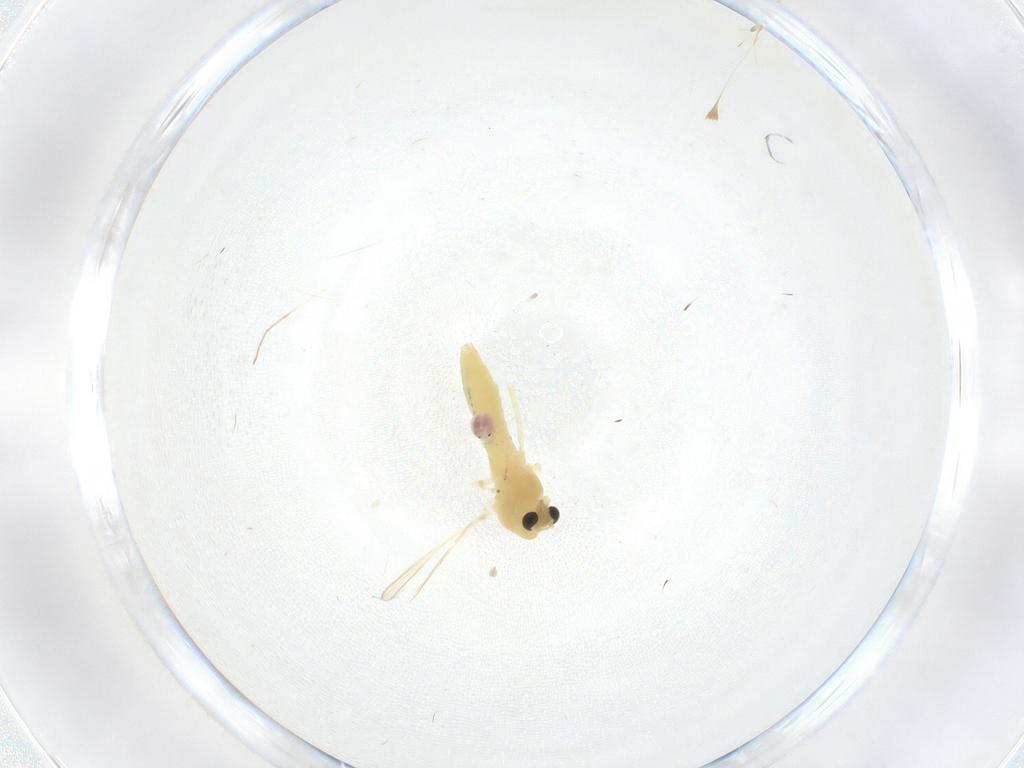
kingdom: Animalia
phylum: Arthropoda
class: Insecta
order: Diptera
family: Chironomidae
